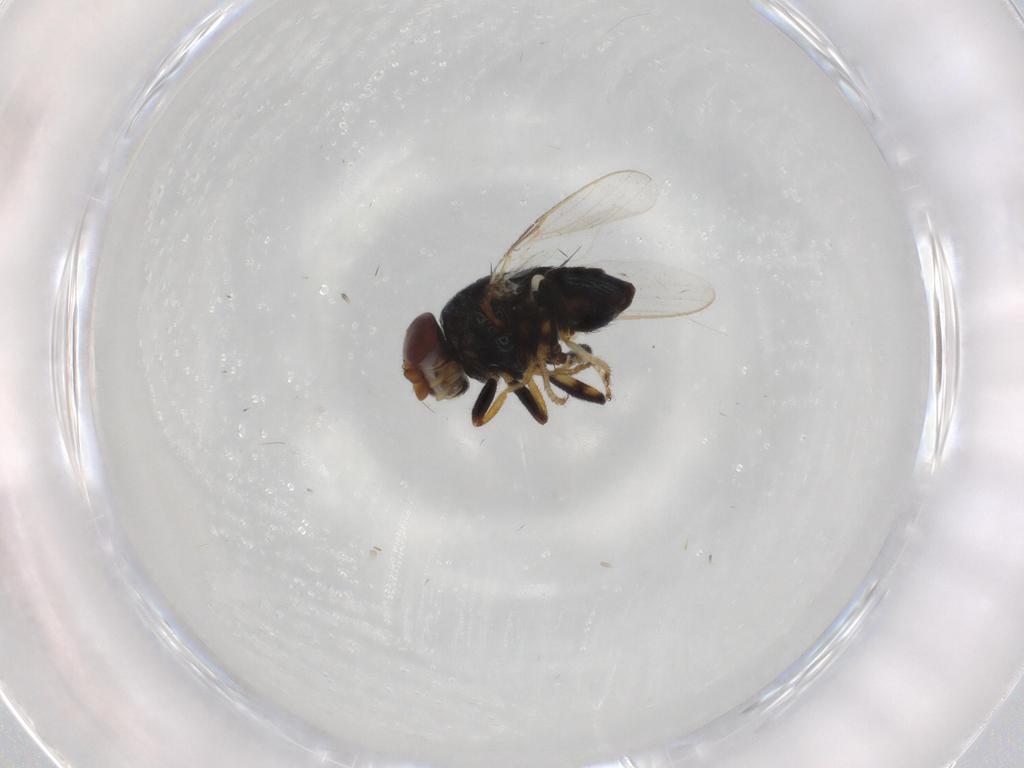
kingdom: Animalia
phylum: Arthropoda
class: Insecta
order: Diptera
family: Chloropidae
